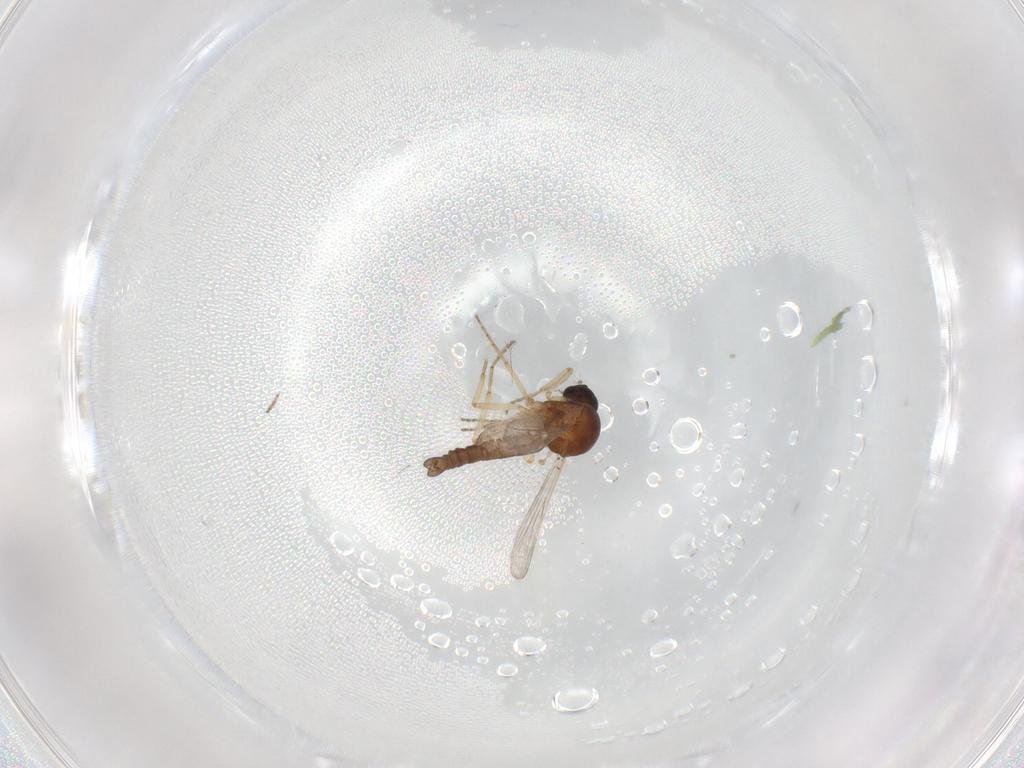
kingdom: Animalia
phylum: Arthropoda
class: Insecta
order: Diptera
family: Ceratopogonidae
